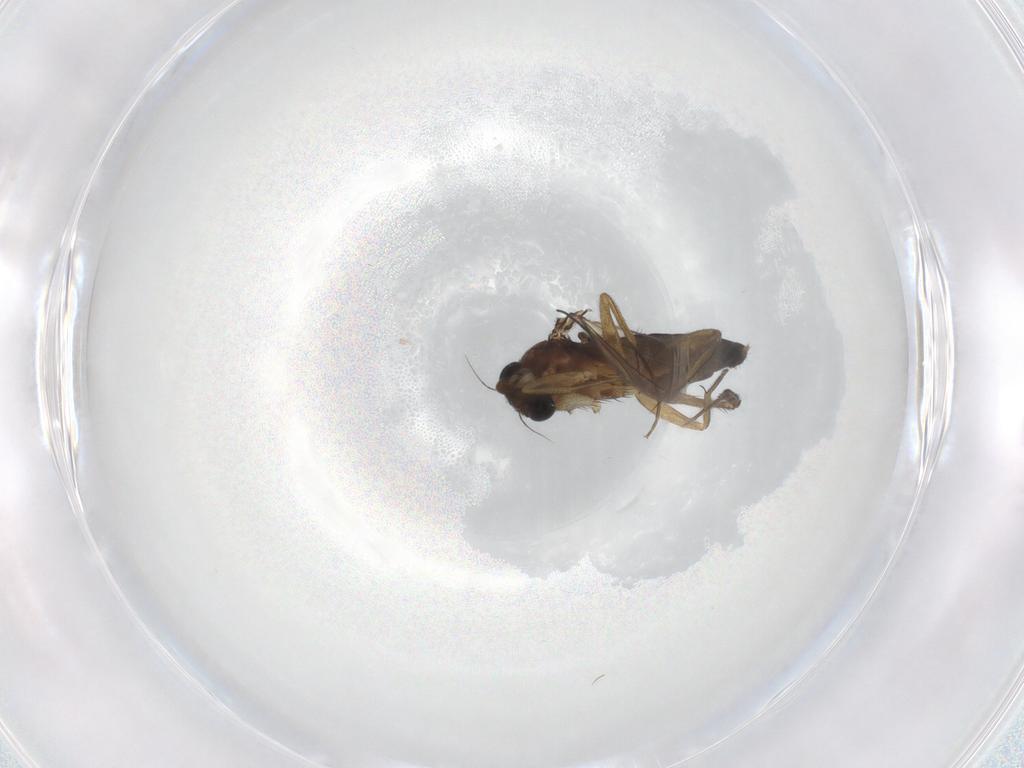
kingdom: Animalia
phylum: Arthropoda
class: Insecta
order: Diptera
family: Phoridae
